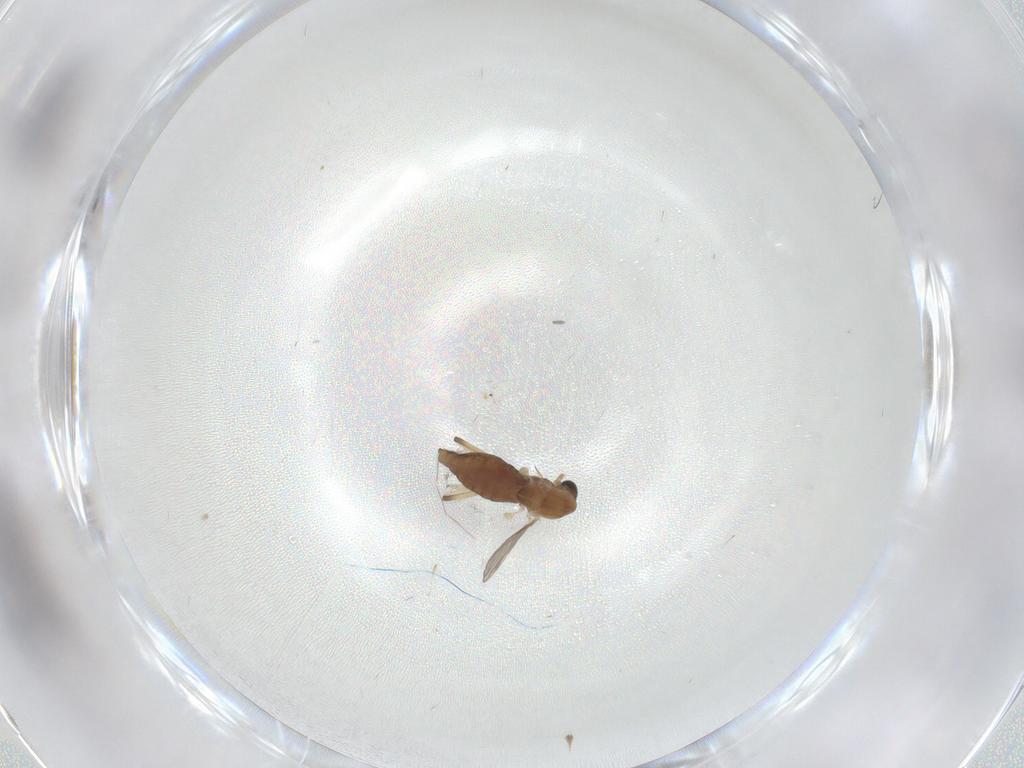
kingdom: Animalia
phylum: Arthropoda
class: Insecta
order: Diptera
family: Chironomidae
